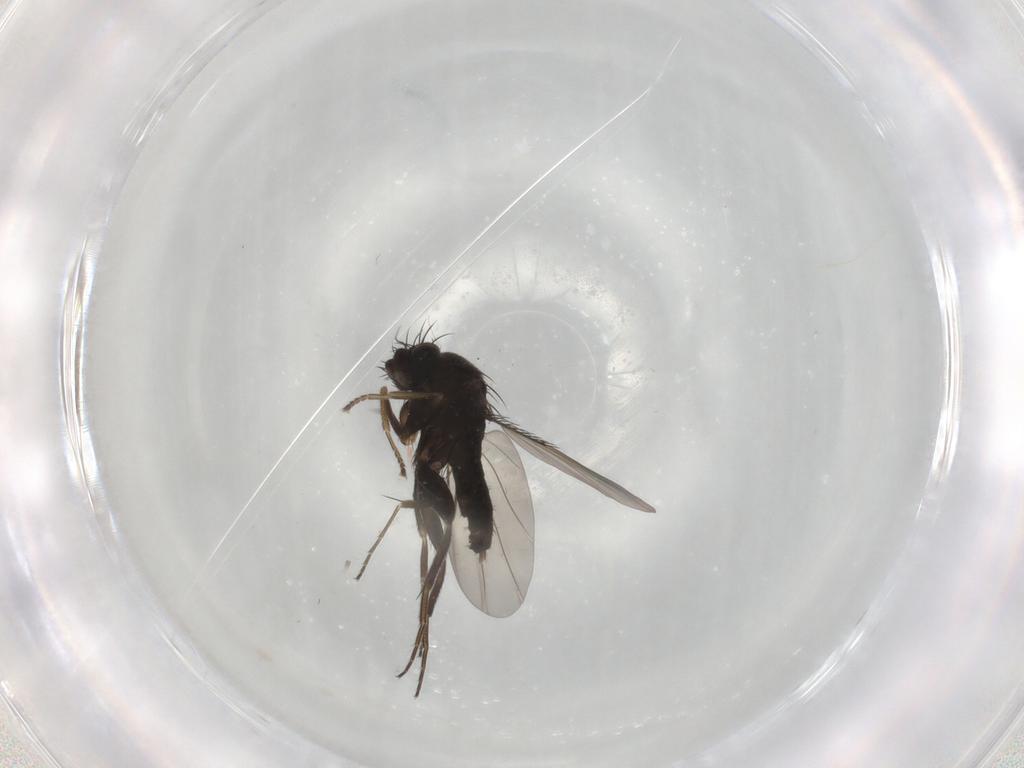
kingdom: Animalia
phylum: Arthropoda
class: Insecta
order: Diptera
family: Phoridae
